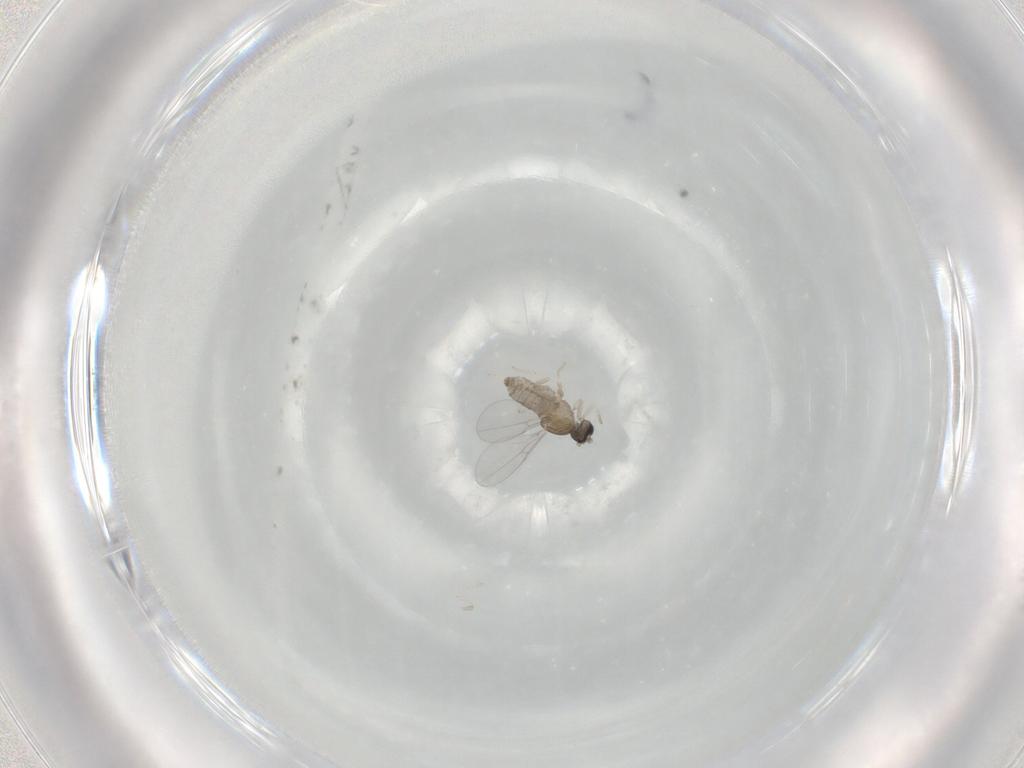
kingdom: Animalia
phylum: Arthropoda
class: Insecta
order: Diptera
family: Cecidomyiidae
